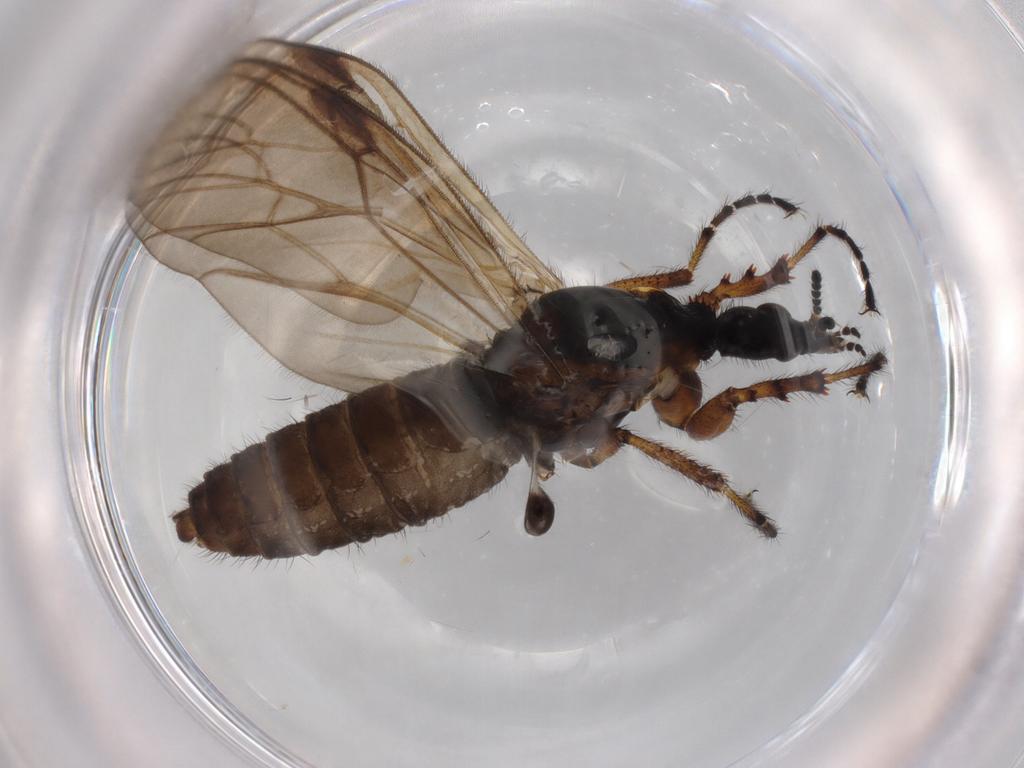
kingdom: Animalia
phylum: Arthropoda
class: Insecta
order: Diptera
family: Bibionidae
